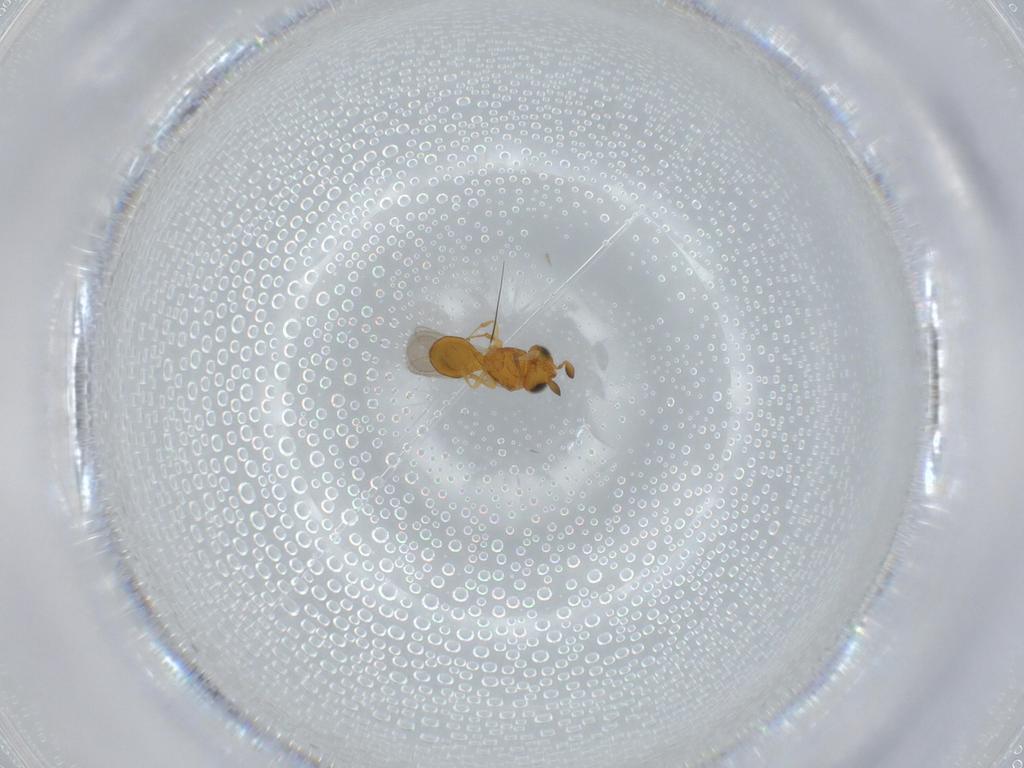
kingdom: Animalia
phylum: Arthropoda
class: Insecta
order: Hymenoptera
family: Scelionidae
